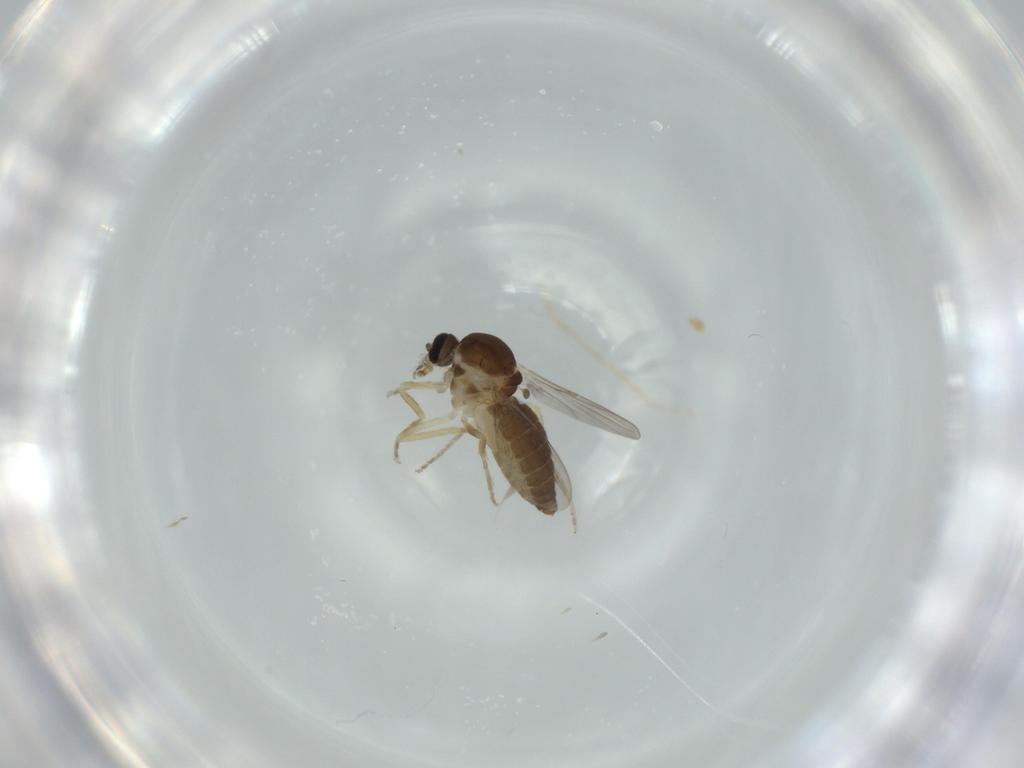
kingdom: Animalia
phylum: Arthropoda
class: Insecta
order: Diptera
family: Ceratopogonidae
